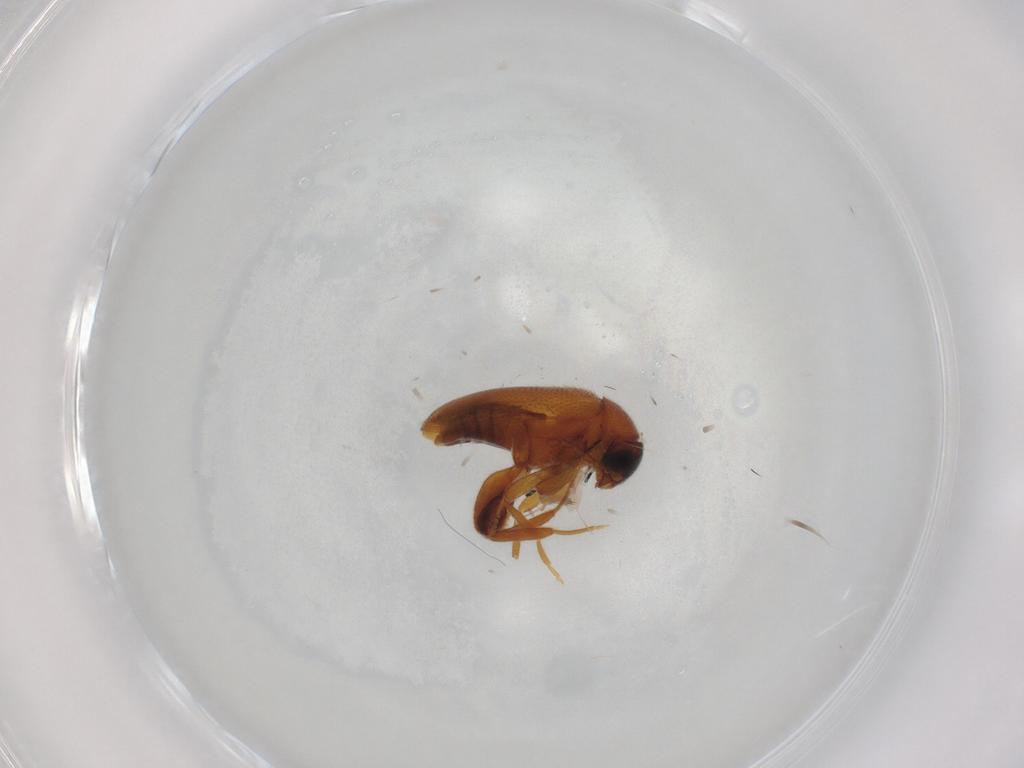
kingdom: Animalia
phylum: Arthropoda
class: Insecta
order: Coleoptera
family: Aderidae
